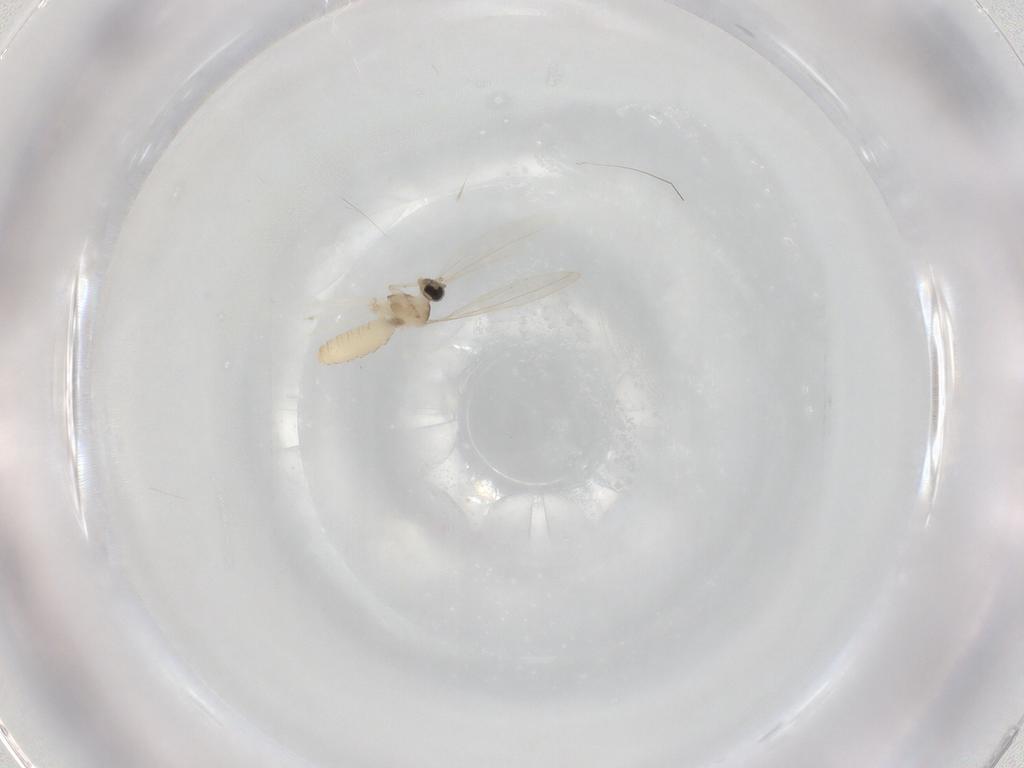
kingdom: Animalia
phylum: Arthropoda
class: Insecta
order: Diptera
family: Cecidomyiidae
